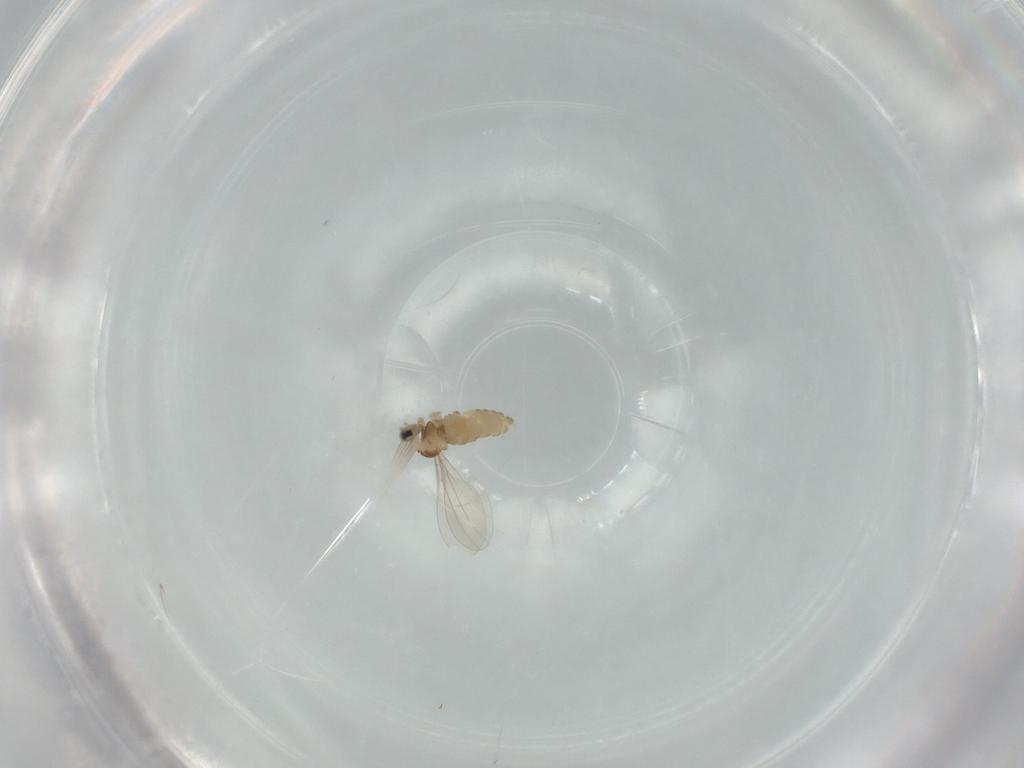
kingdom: Animalia
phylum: Arthropoda
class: Insecta
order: Diptera
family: Cecidomyiidae
